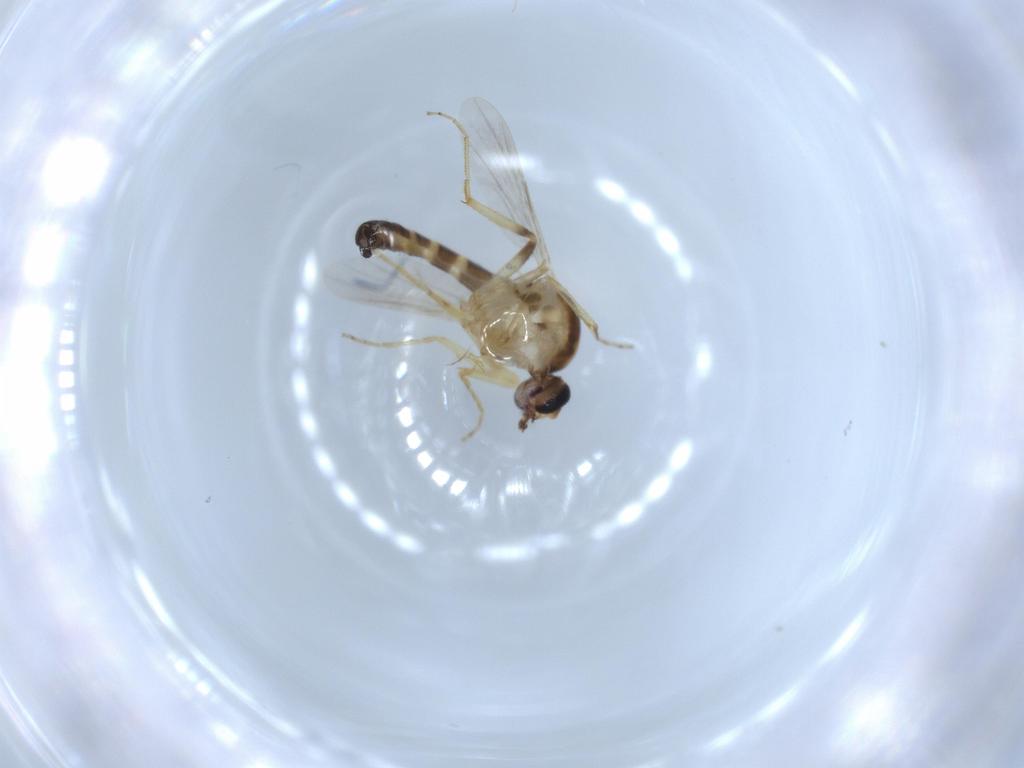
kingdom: Animalia
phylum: Arthropoda
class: Insecta
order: Diptera
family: Ceratopogonidae
